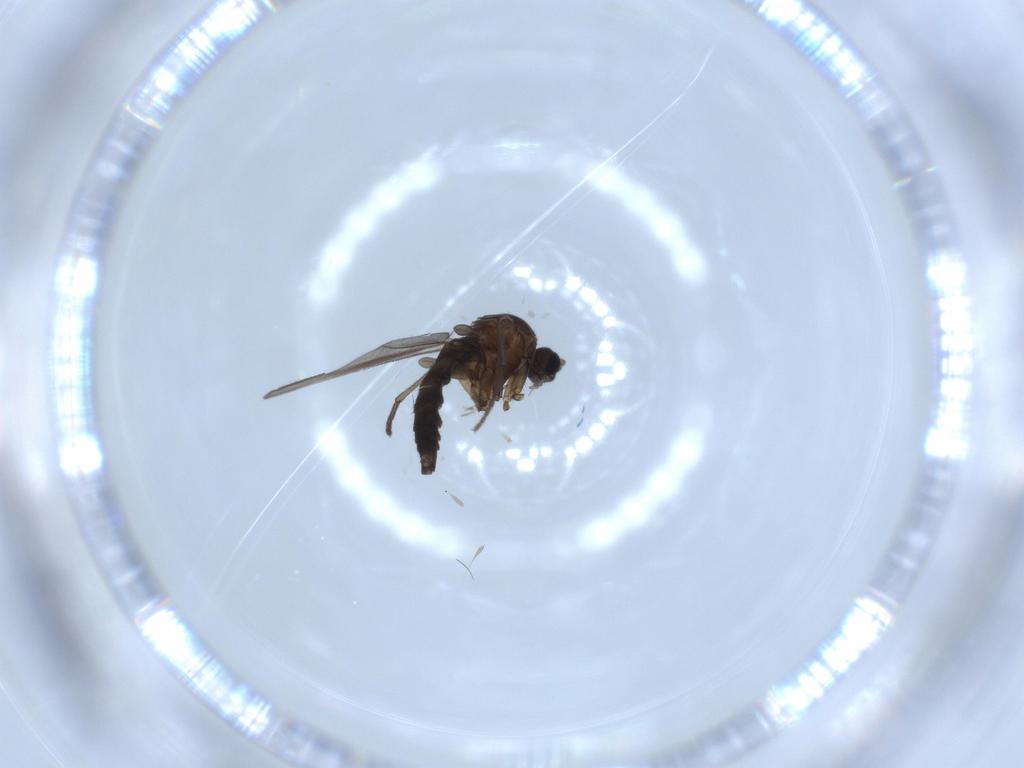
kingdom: Animalia
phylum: Arthropoda
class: Insecta
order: Diptera
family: Sciaridae
